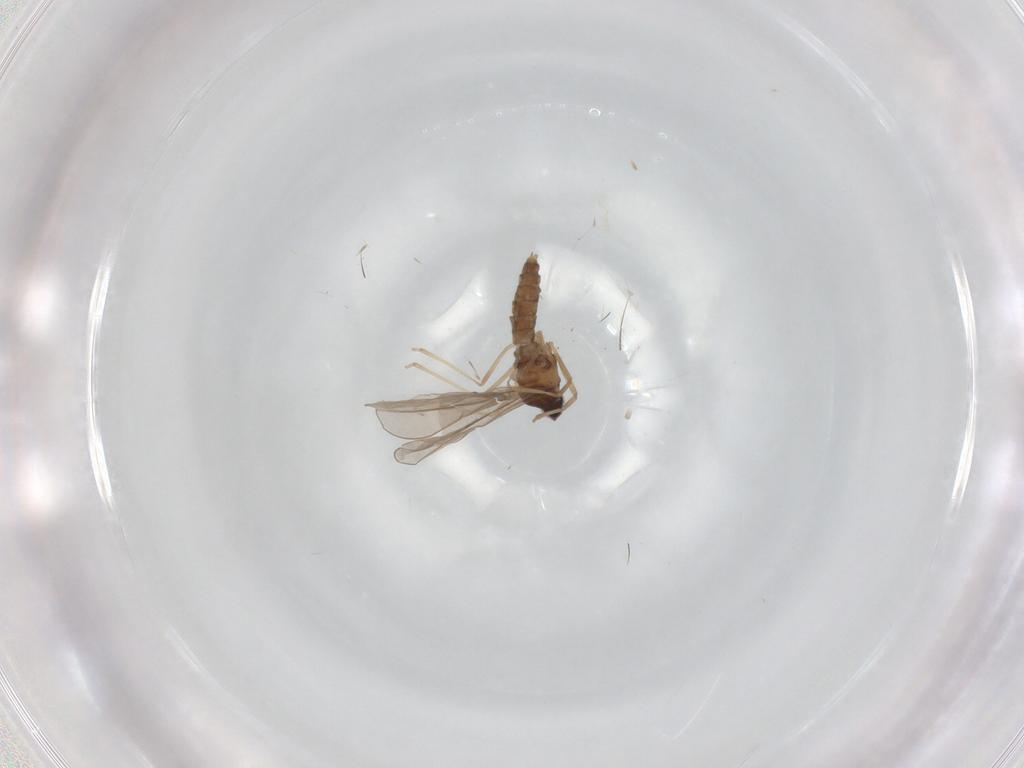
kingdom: Animalia
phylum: Arthropoda
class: Insecta
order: Diptera
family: Cecidomyiidae
